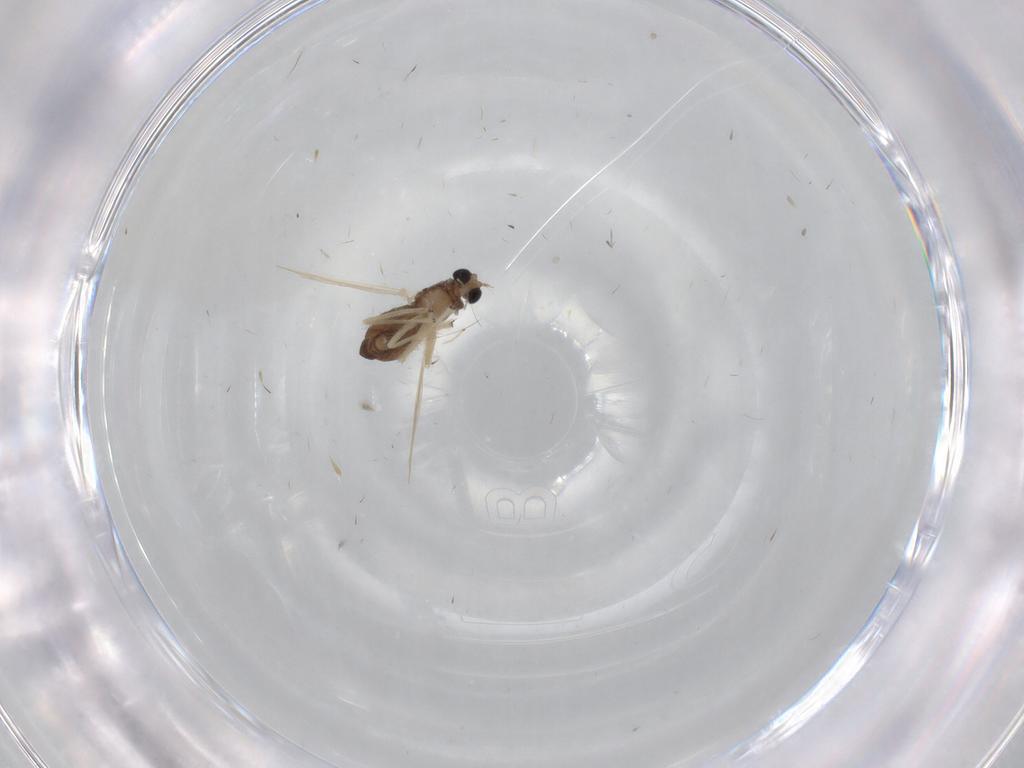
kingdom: Animalia
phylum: Arthropoda
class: Insecta
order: Diptera
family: Chironomidae
